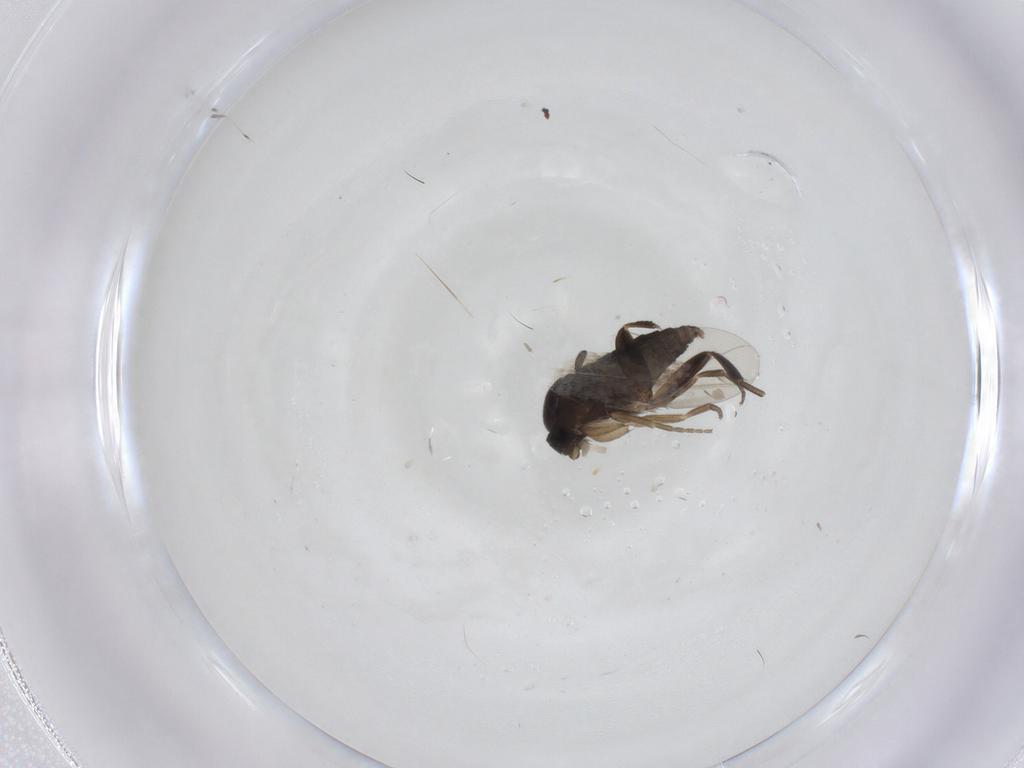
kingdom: Animalia
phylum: Arthropoda
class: Insecta
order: Diptera
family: Phoridae
